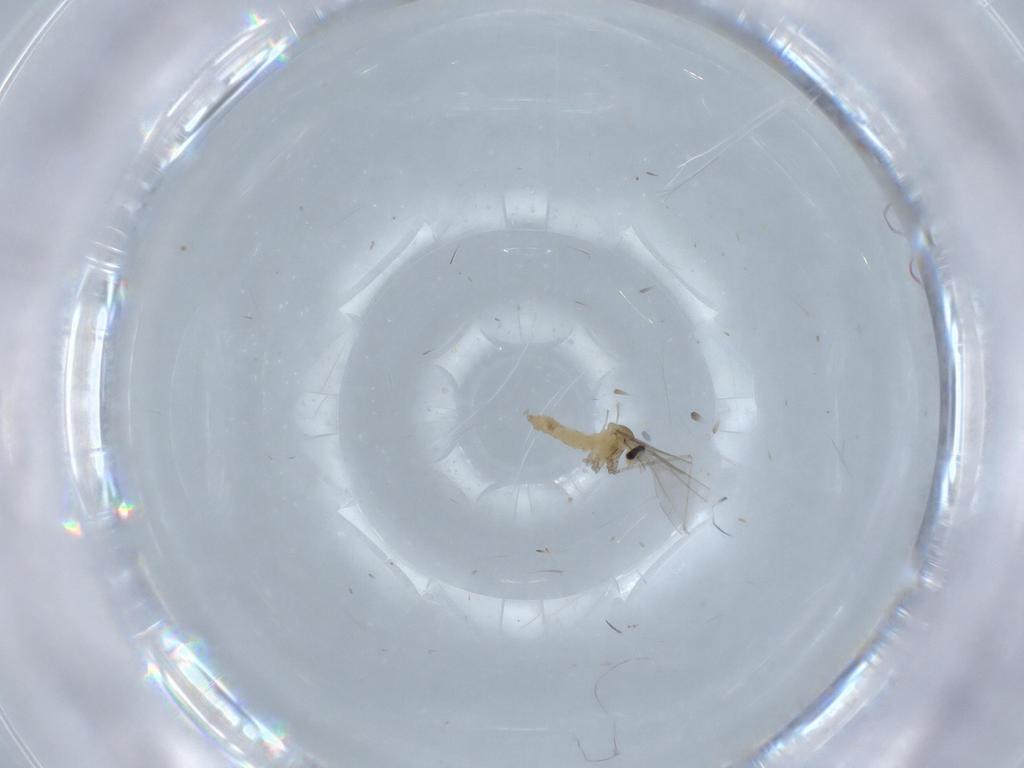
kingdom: Animalia
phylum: Arthropoda
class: Insecta
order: Diptera
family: Cecidomyiidae
